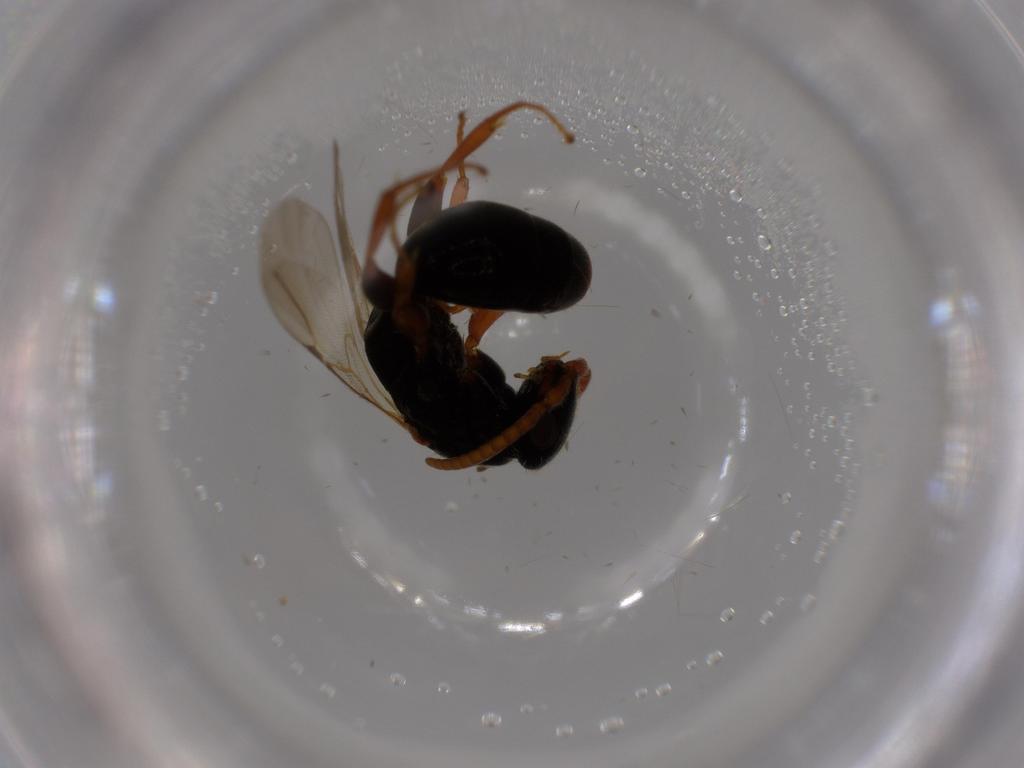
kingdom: Animalia
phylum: Arthropoda
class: Insecta
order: Hymenoptera
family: Bethylidae
